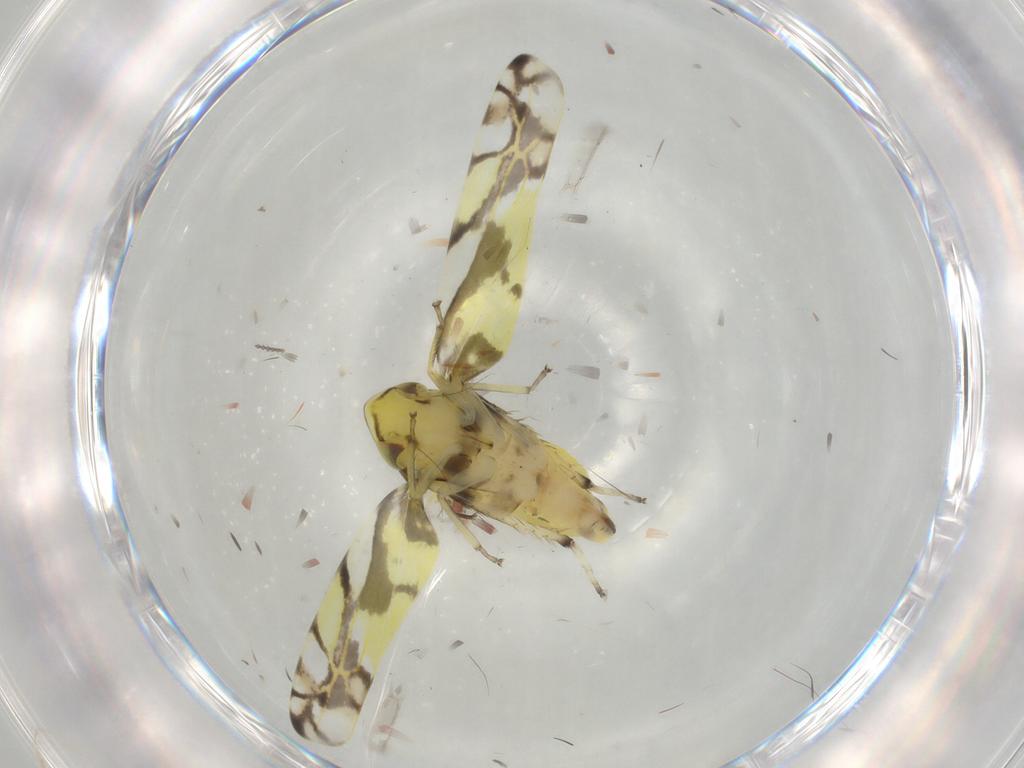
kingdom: Animalia
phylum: Arthropoda
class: Insecta
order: Hemiptera
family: Cicadellidae
